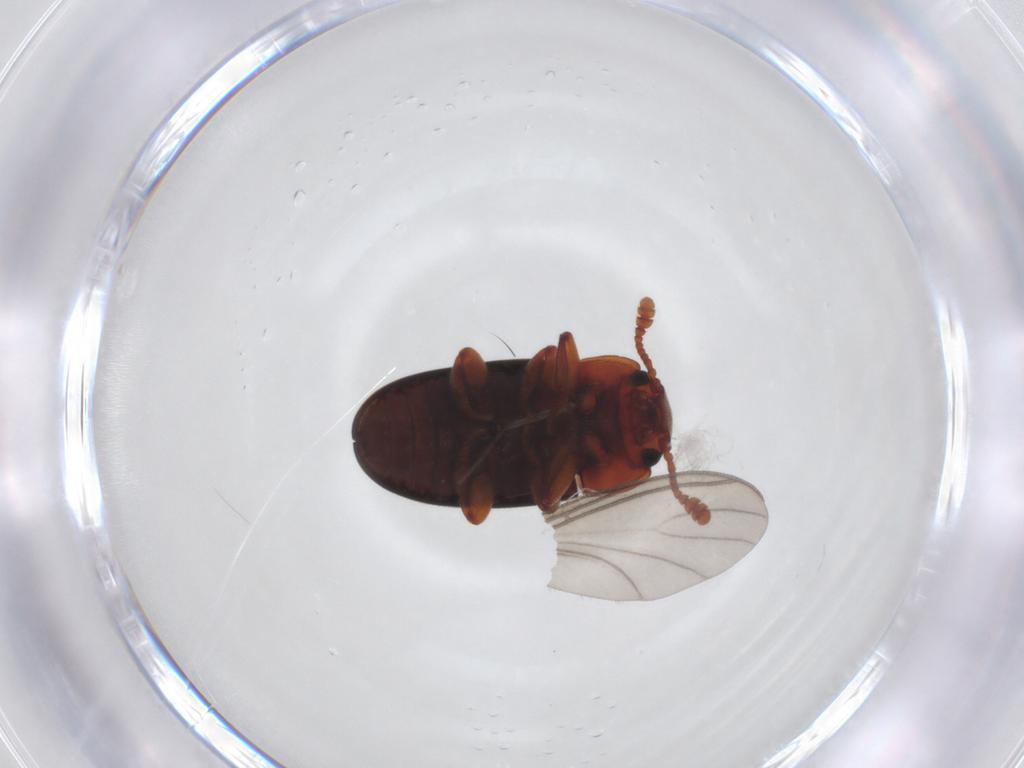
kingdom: Animalia
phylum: Arthropoda
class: Insecta
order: Coleoptera
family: Erotylidae
